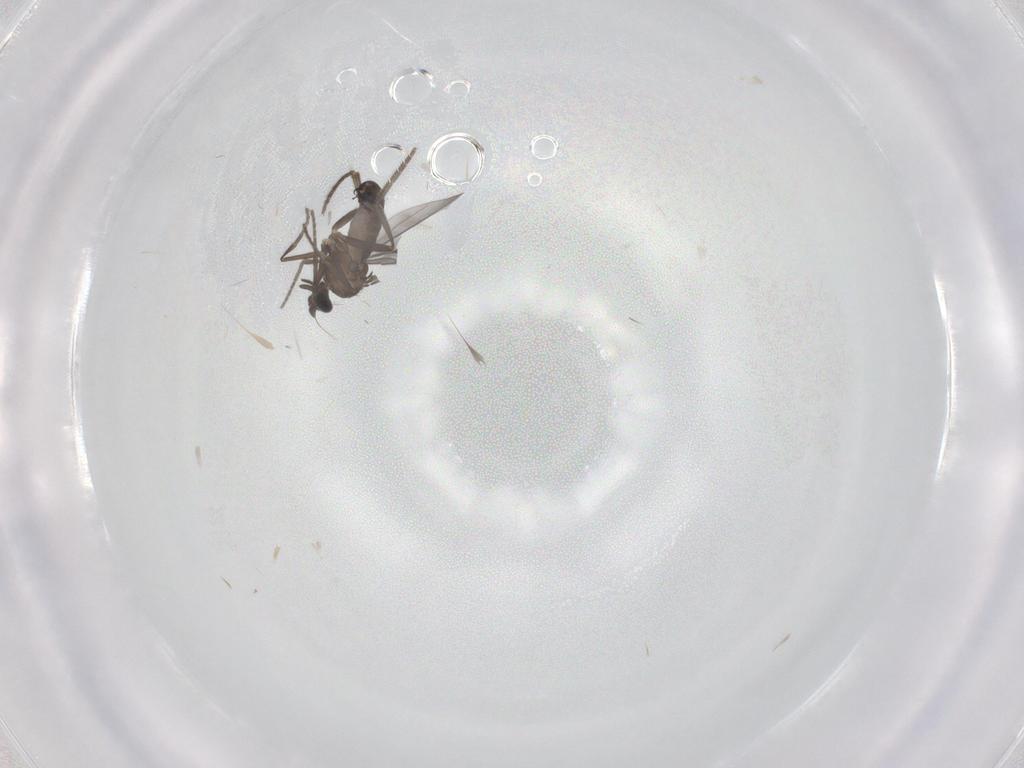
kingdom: Animalia
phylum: Arthropoda
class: Insecta
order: Diptera
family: Phoridae
